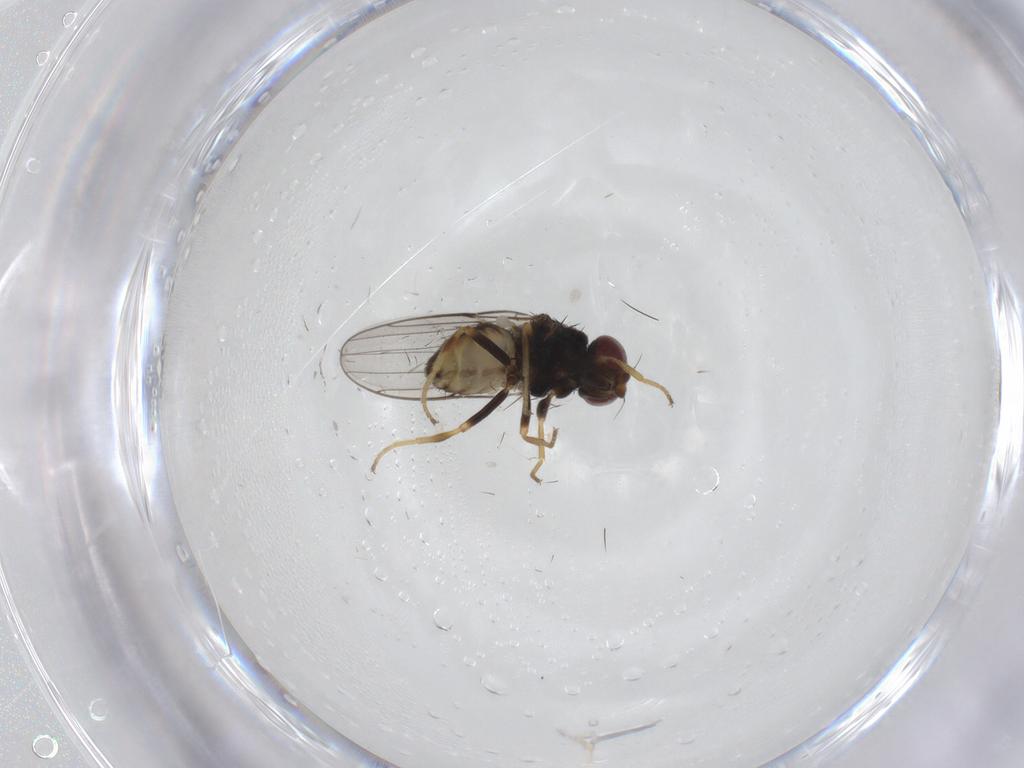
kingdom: Animalia
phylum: Arthropoda
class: Insecta
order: Diptera
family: Chloropidae
